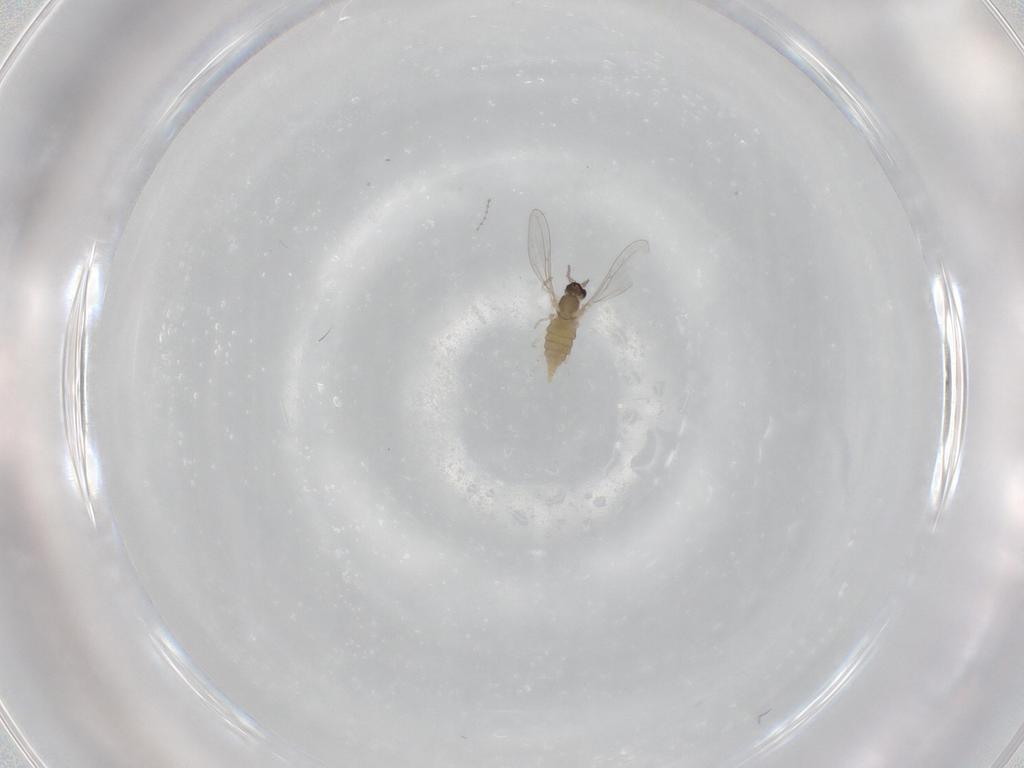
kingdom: Animalia
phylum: Arthropoda
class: Insecta
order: Diptera
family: Cecidomyiidae
